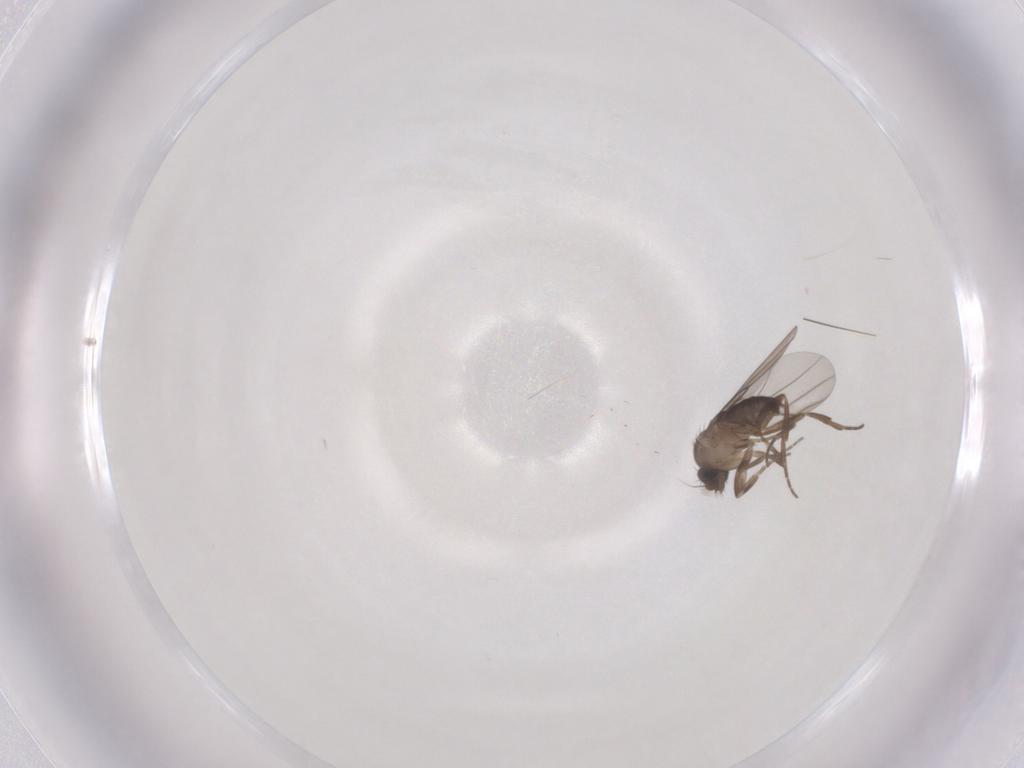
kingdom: Animalia
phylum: Arthropoda
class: Insecta
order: Diptera
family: Phoridae
